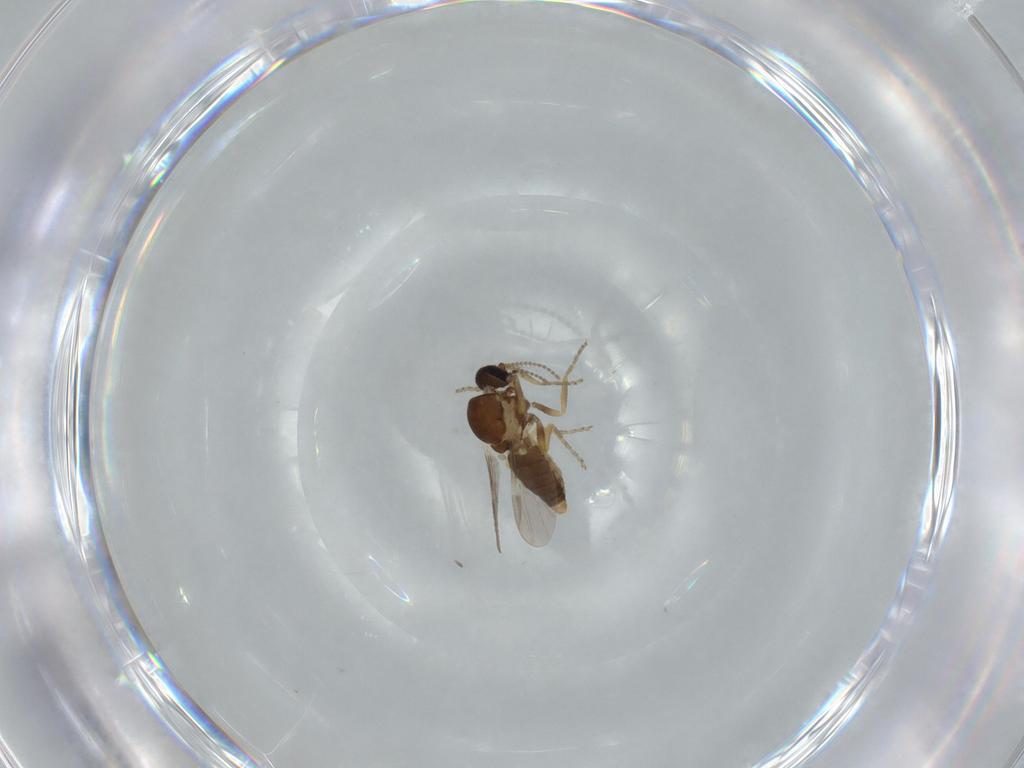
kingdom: Animalia
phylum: Arthropoda
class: Insecta
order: Diptera
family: Ceratopogonidae
